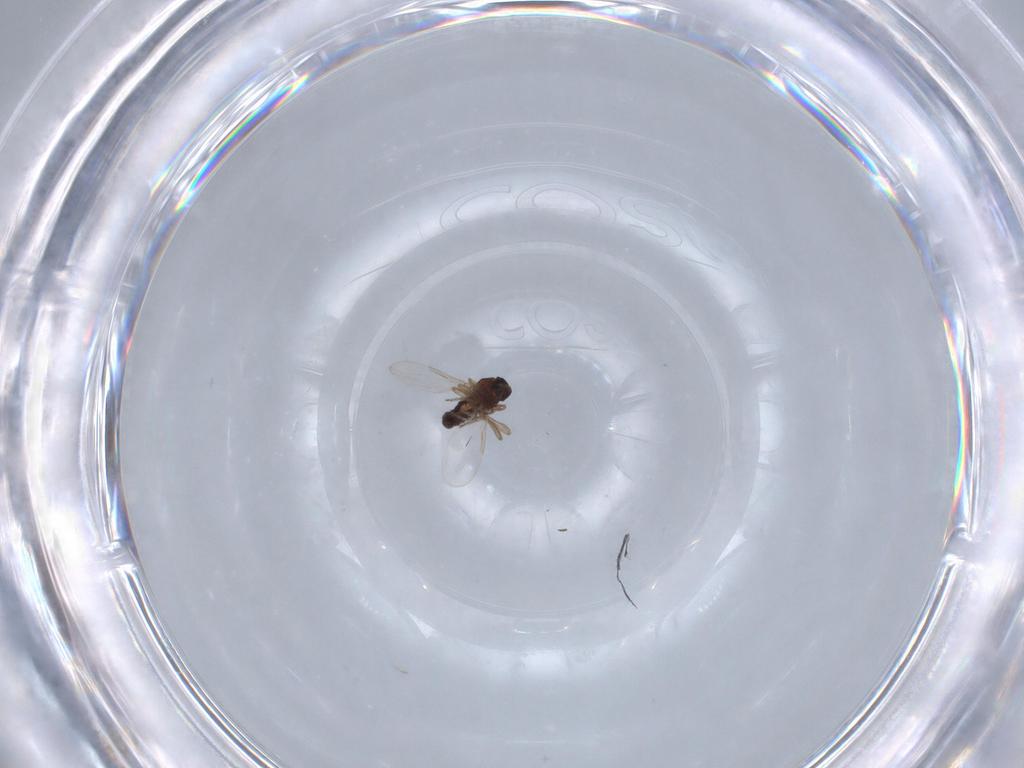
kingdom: Animalia
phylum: Arthropoda
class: Insecta
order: Diptera
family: Ceratopogonidae
